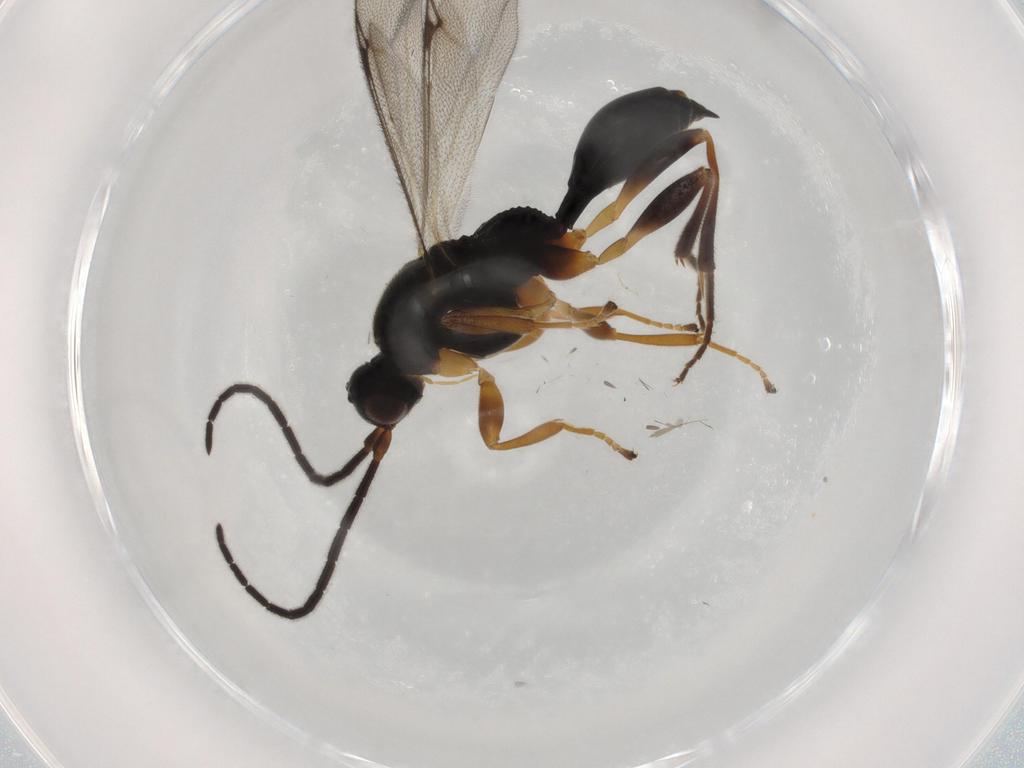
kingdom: Animalia
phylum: Arthropoda
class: Insecta
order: Hymenoptera
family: Proctotrupidae
